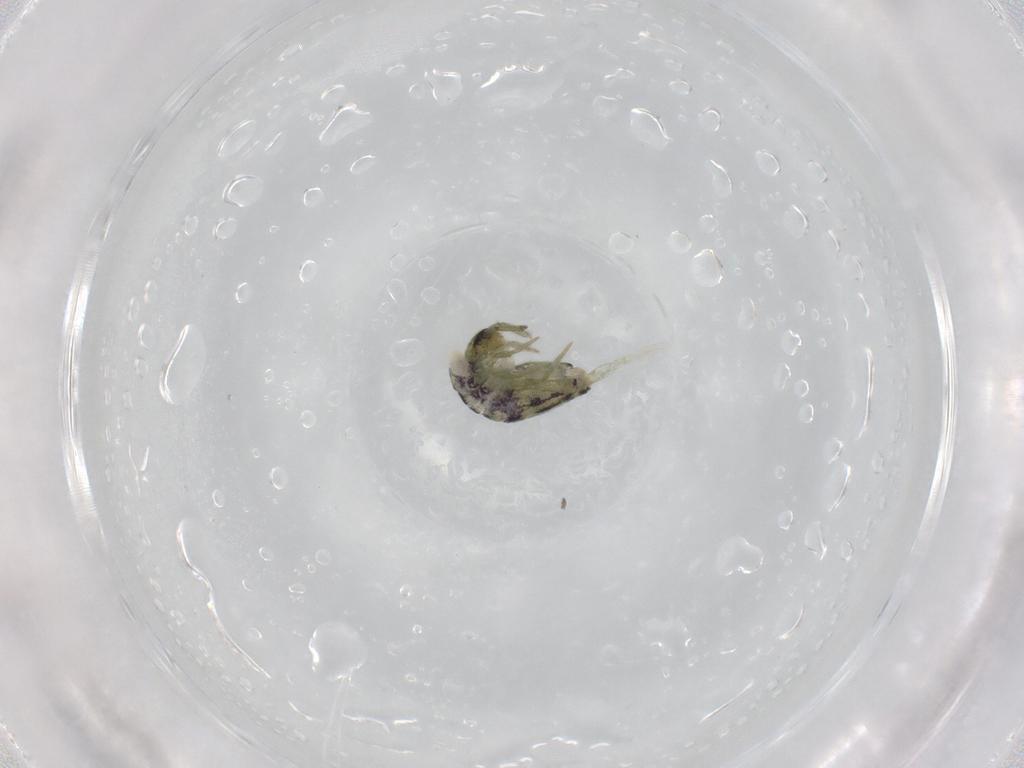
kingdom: Animalia
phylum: Arthropoda
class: Collembola
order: Entomobryomorpha
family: Entomobryidae
